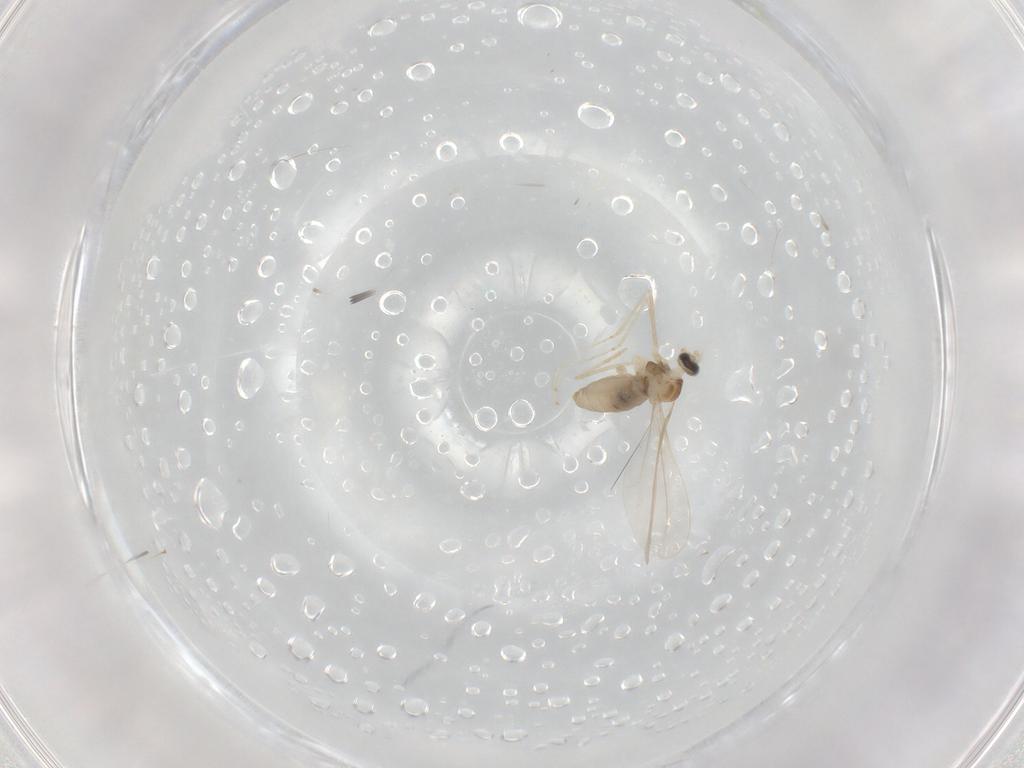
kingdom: Animalia
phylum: Arthropoda
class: Insecta
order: Diptera
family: Cecidomyiidae
